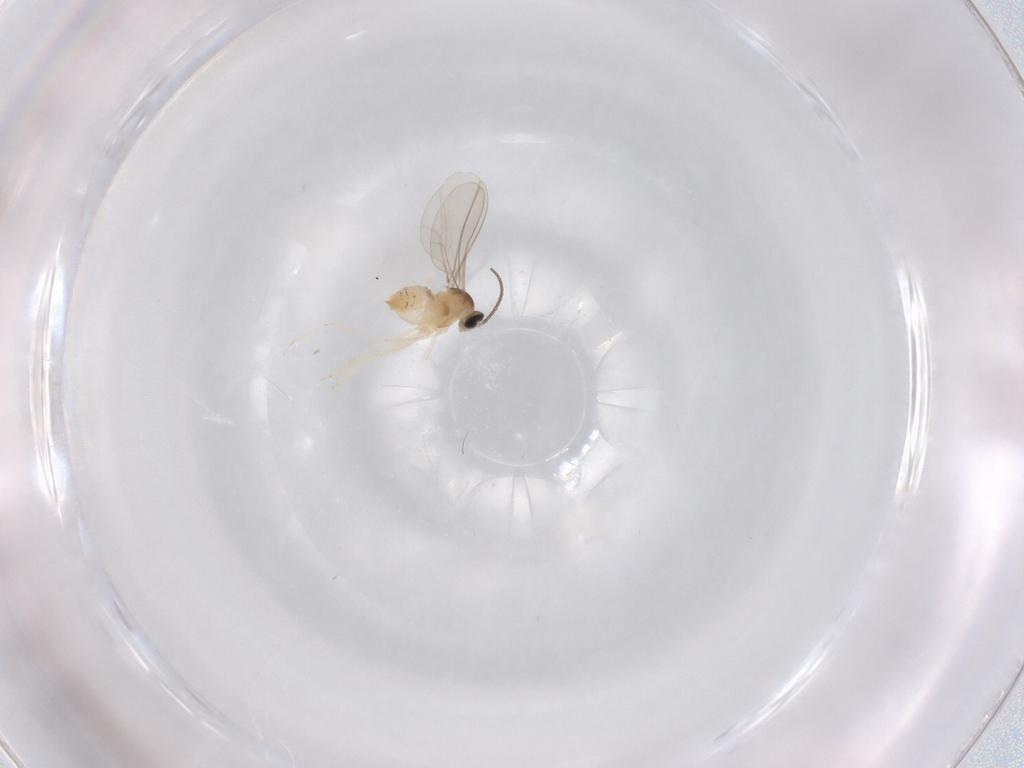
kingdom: Animalia
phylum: Arthropoda
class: Insecta
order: Diptera
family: Cecidomyiidae
